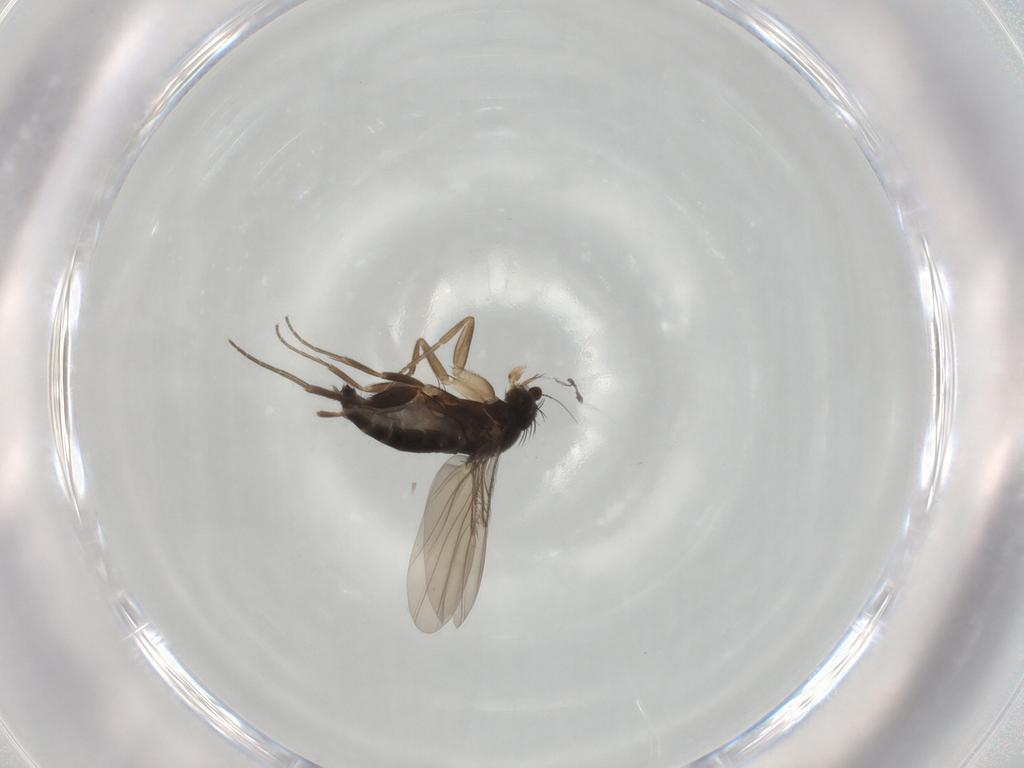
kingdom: Animalia
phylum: Arthropoda
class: Insecta
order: Diptera
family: Phoridae
